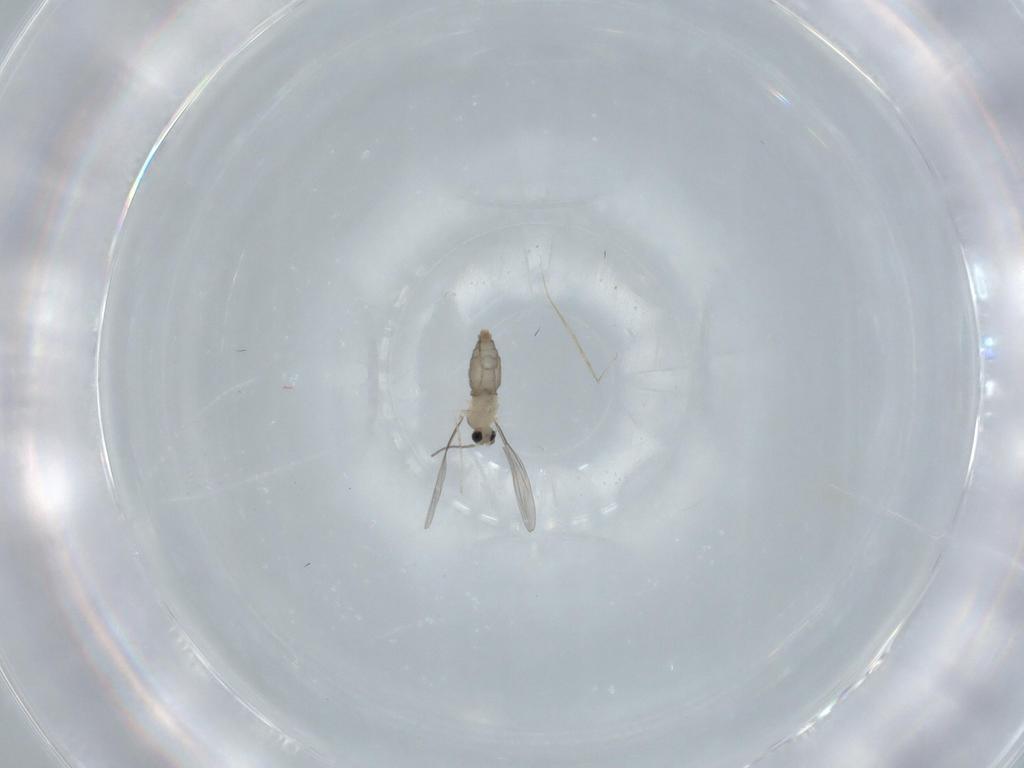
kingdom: Animalia
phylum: Arthropoda
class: Insecta
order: Diptera
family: Cecidomyiidae
